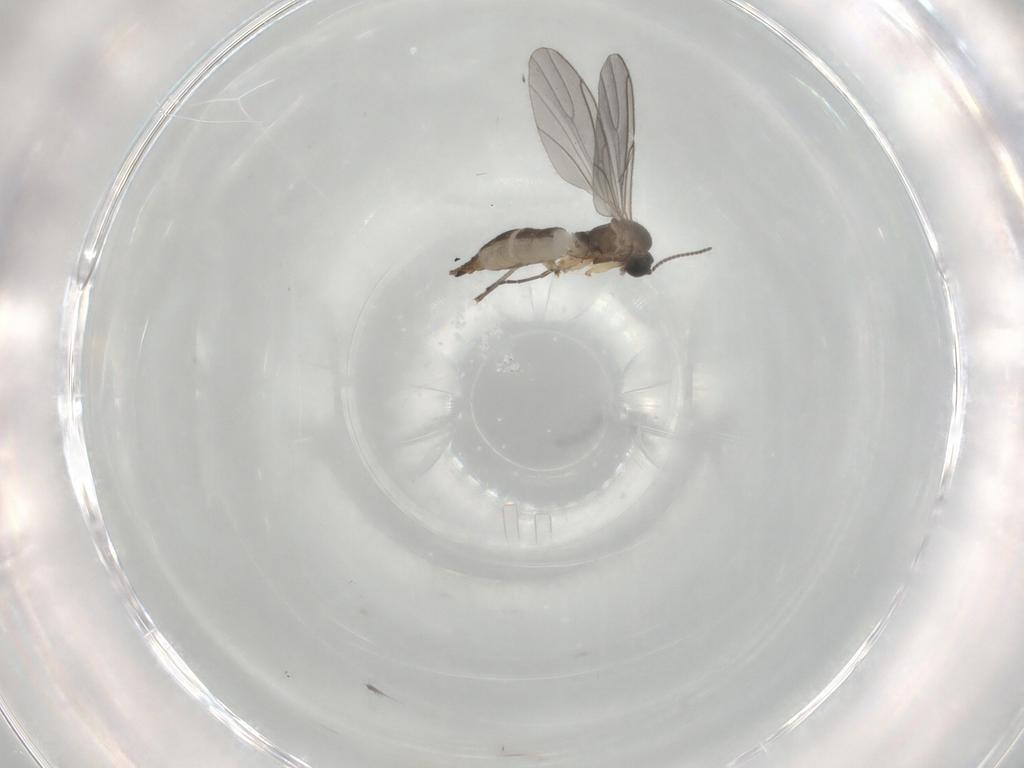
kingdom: Animalia
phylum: Arthropoda
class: Insecta
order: Diptera
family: Sciaridae
